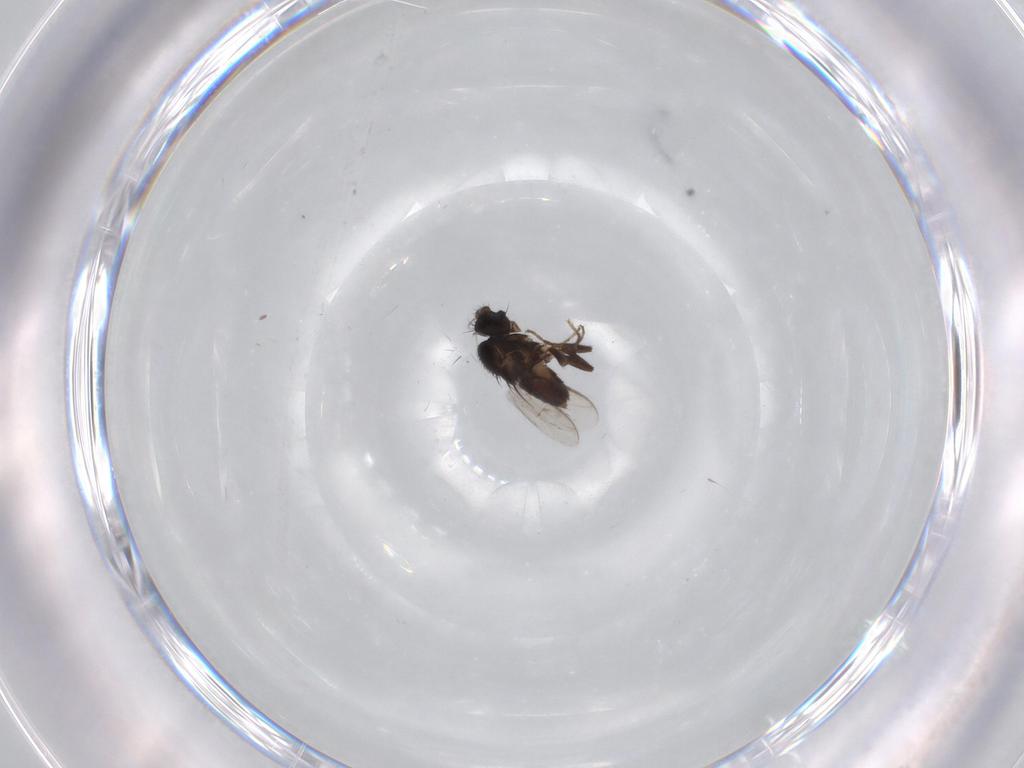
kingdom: Animalia
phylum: Arthropoda
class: Insecta
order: Diptera
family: Sphaeroceridae
